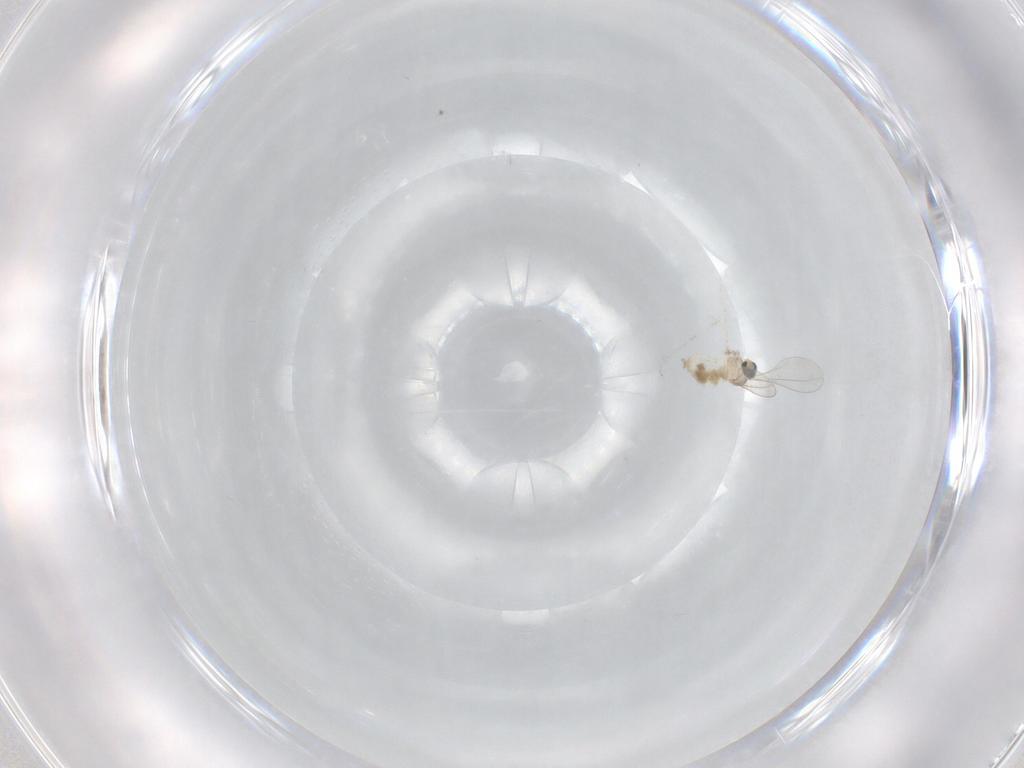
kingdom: Animalia
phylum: Arthropoda
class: Insecta
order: Diptera
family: Cecidomyiidae
